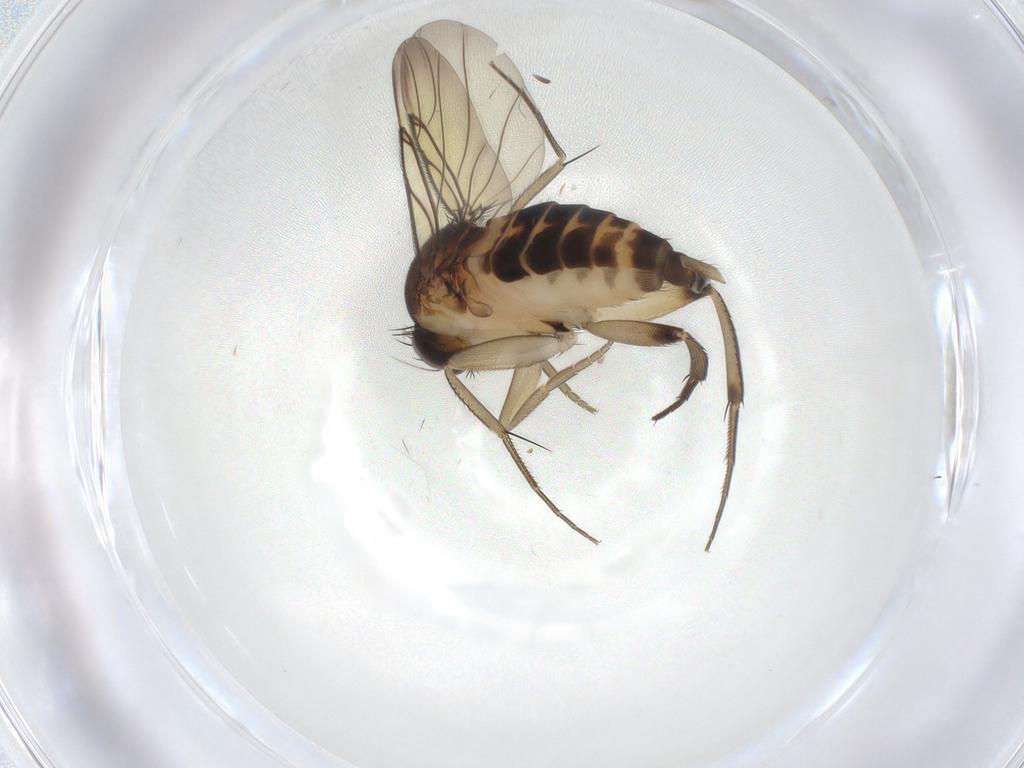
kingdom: Animalia
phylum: Arthropoda
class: Insecta
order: Diptera
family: Phoridae
